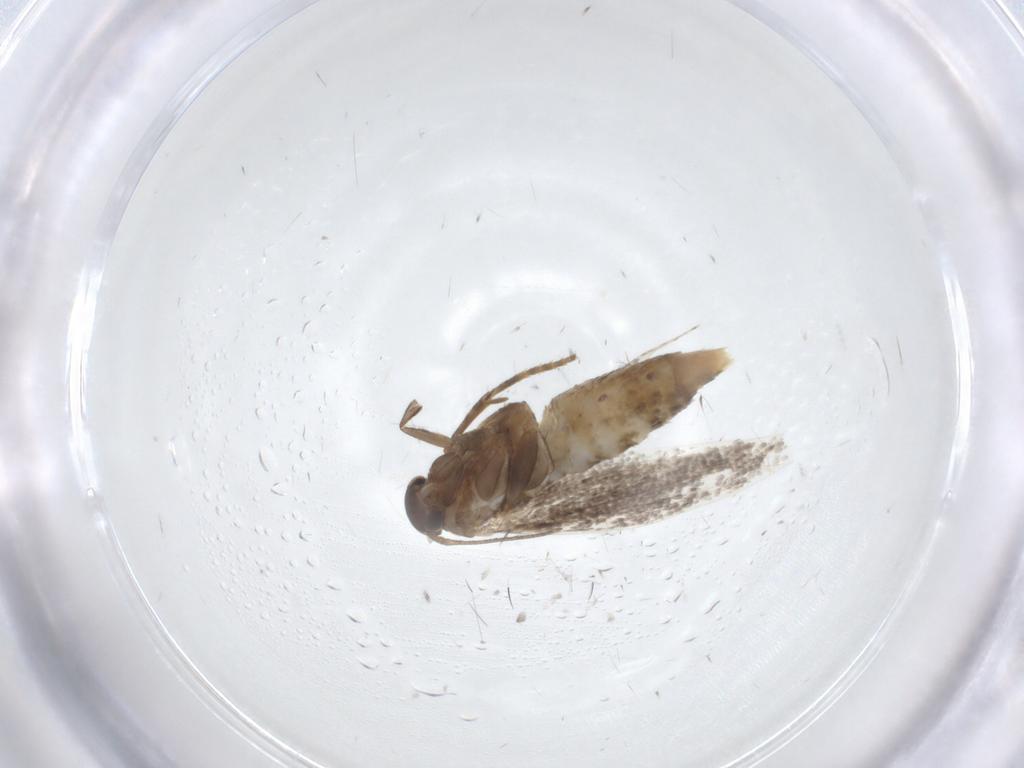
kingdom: Animalia
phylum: Arthropoda
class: Insecta
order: Lepidoptera
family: Elachistidae
